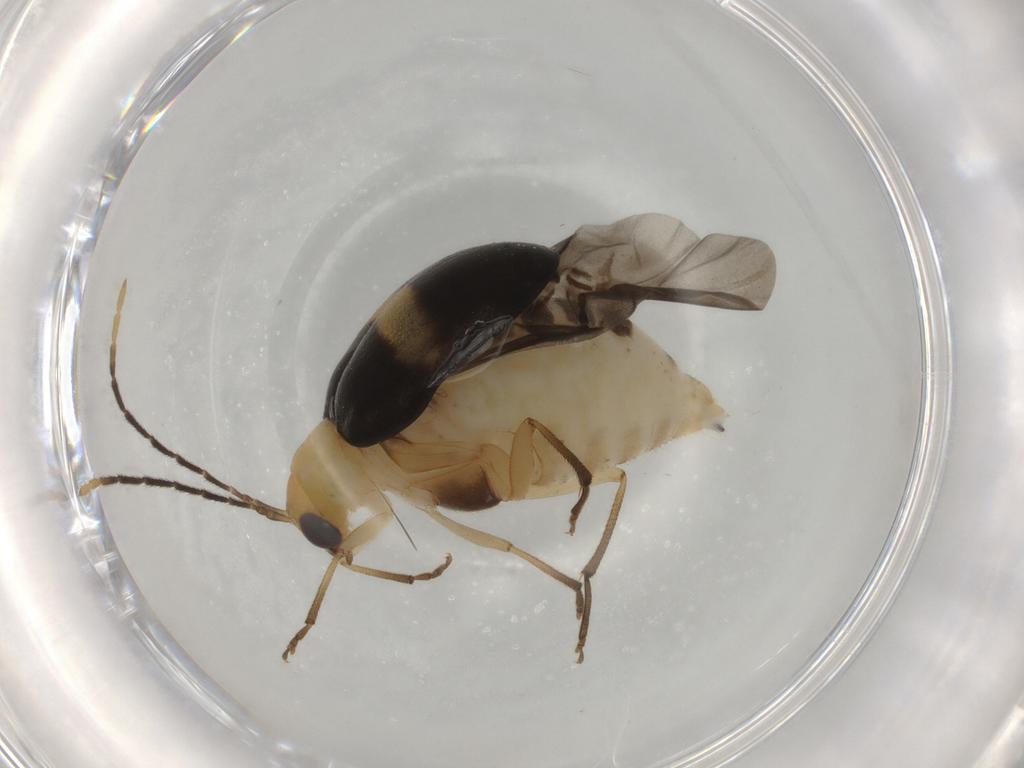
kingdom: Animalia
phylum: Arthropoda
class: Insecta
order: Coleoptera
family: Chrysomelidae
